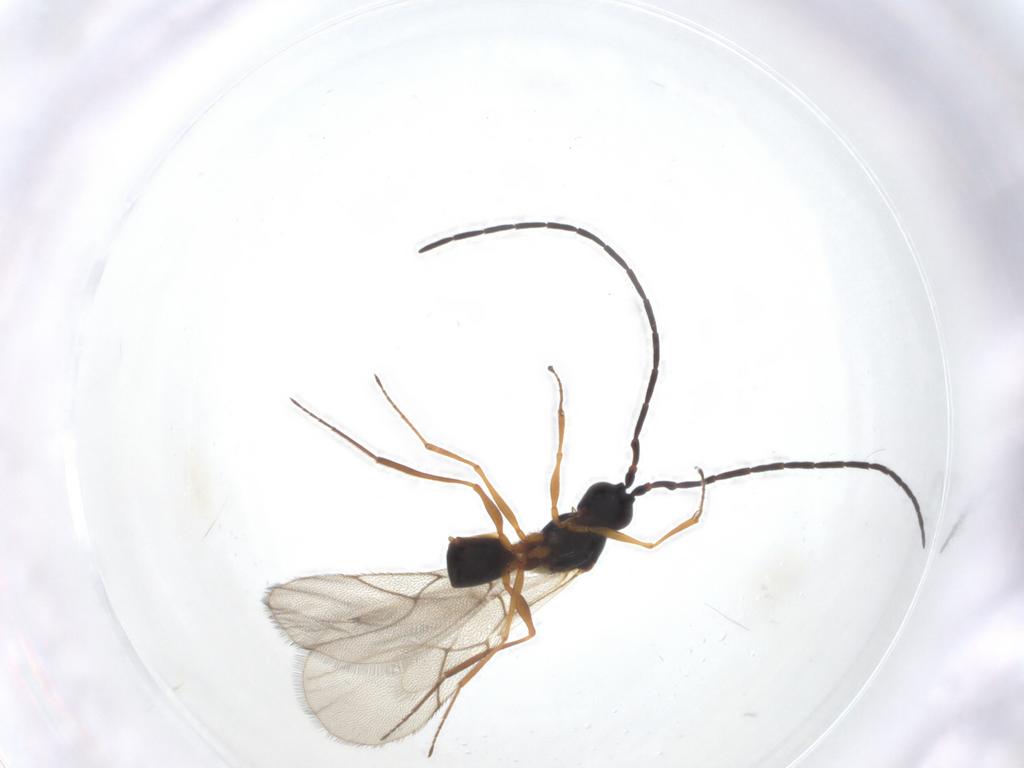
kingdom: Animalia
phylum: Arthropoda
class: Insecta
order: Hymenoptera
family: Figitidae
